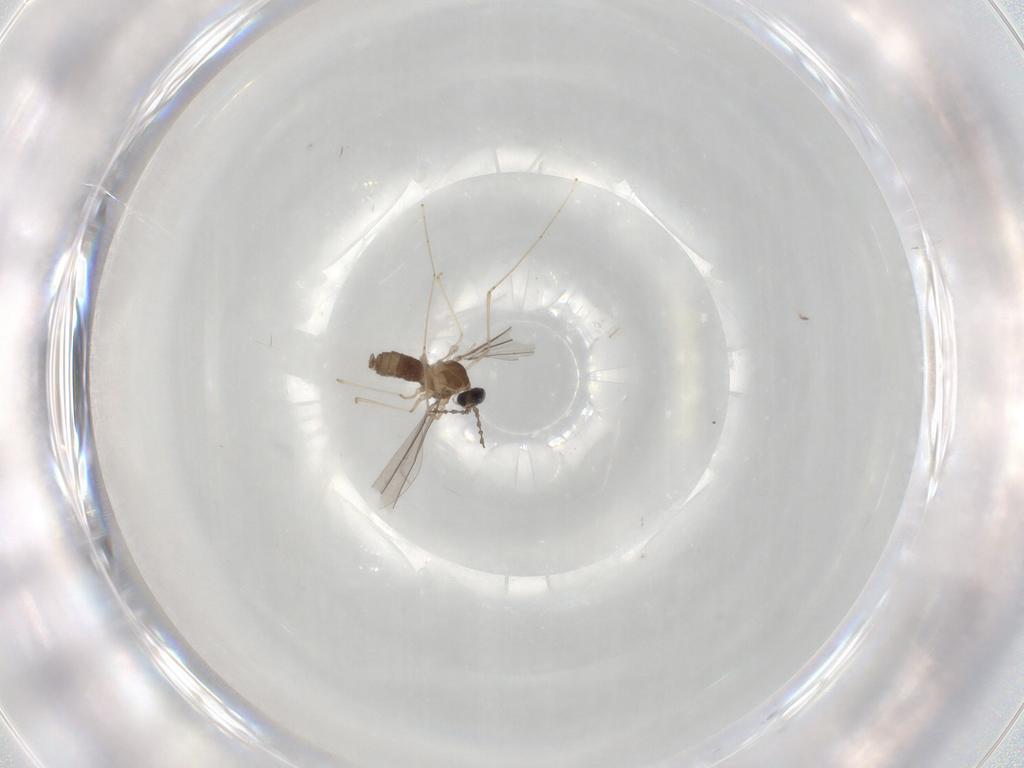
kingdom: Animalia
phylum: Arthropoda
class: Insecta
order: Diptera
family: Cecidomyiidae
